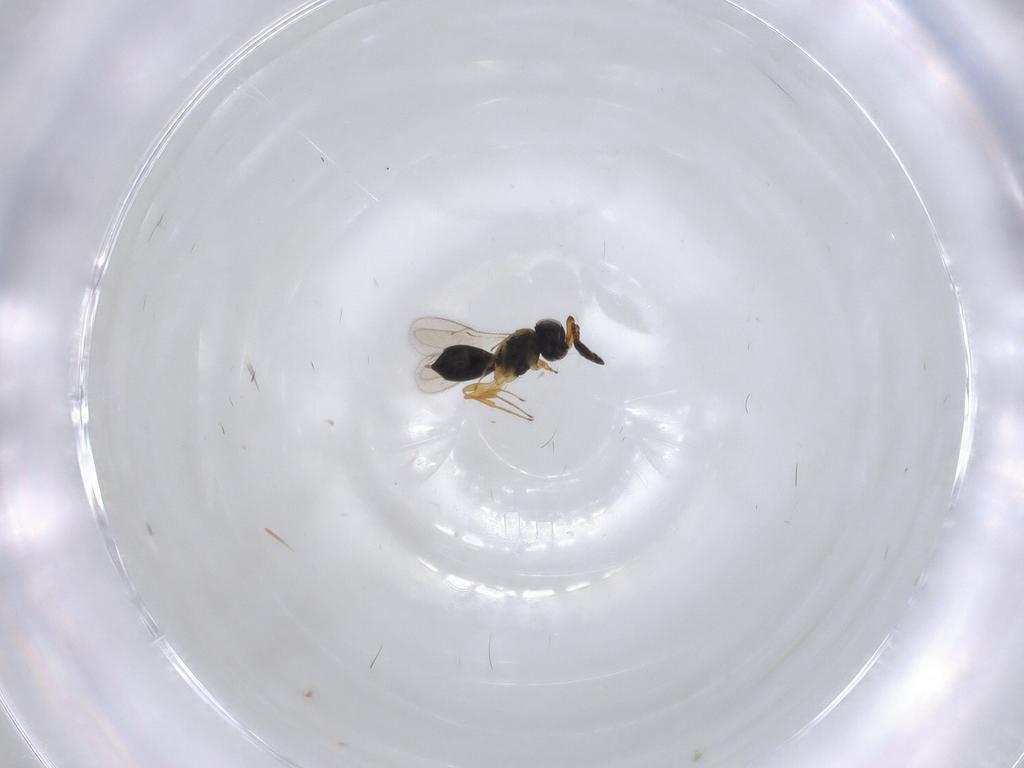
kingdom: Animalia
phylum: Arthropoda
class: Insecta
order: Hymenoptera
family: Scelionidae
